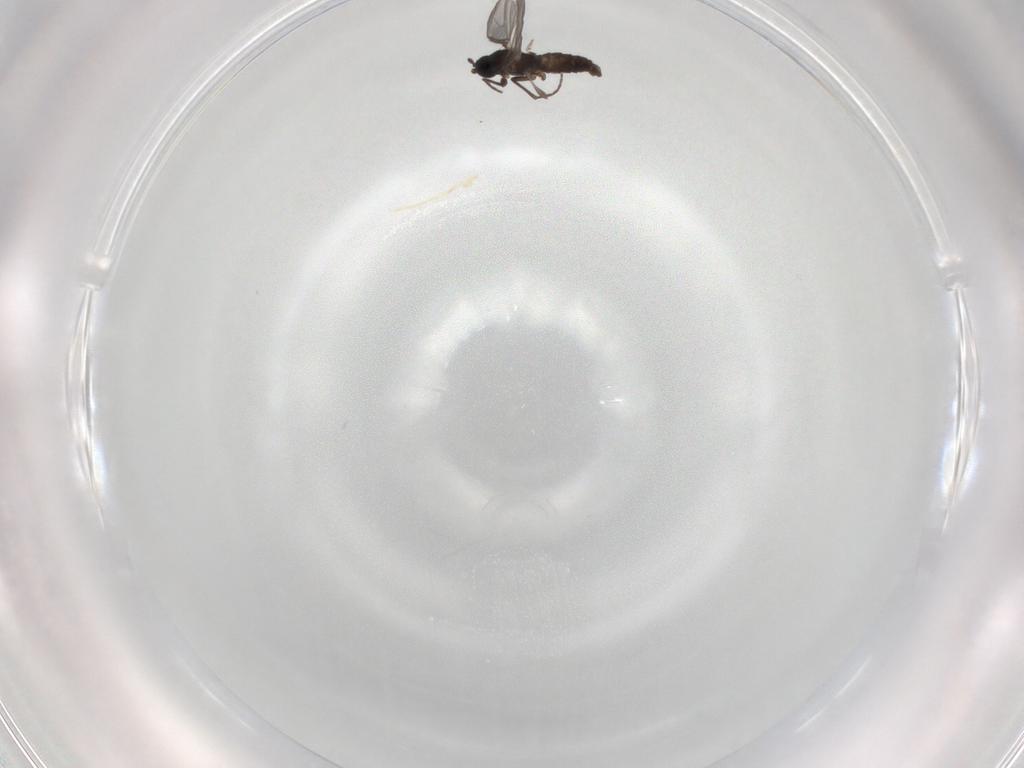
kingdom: Animalia
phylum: Arthropoda
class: Insecta
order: Diptera
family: Sciaridae
